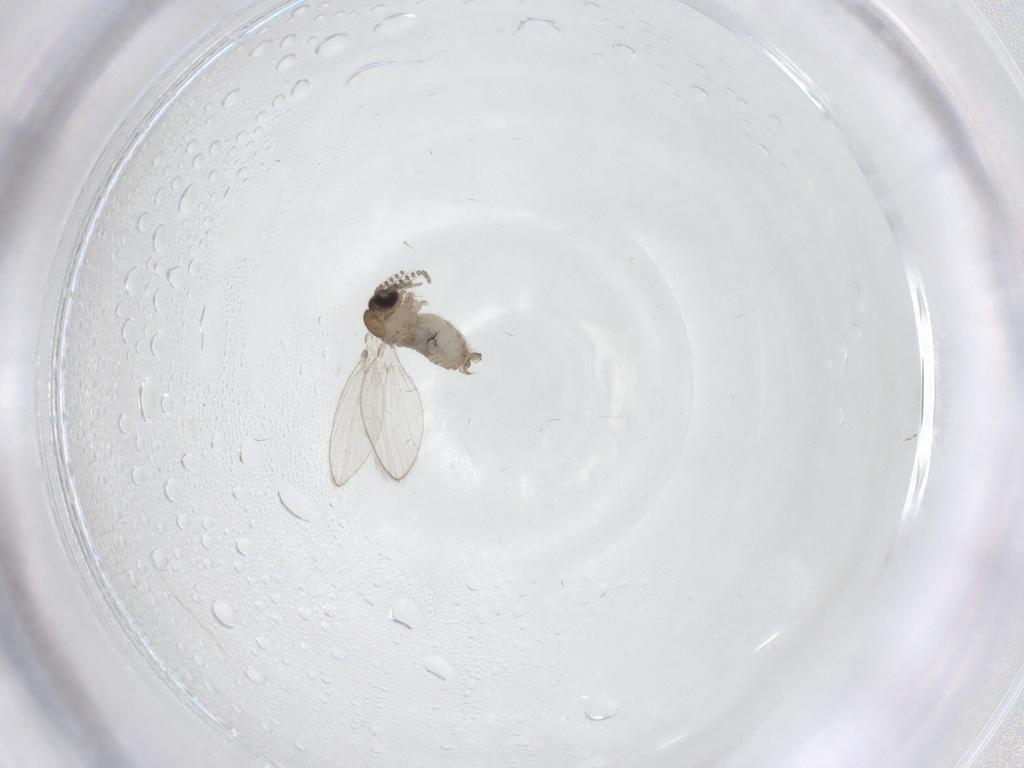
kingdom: Animalia
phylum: Arthropoda
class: Insecta
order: Diptera
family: Psychodidae
